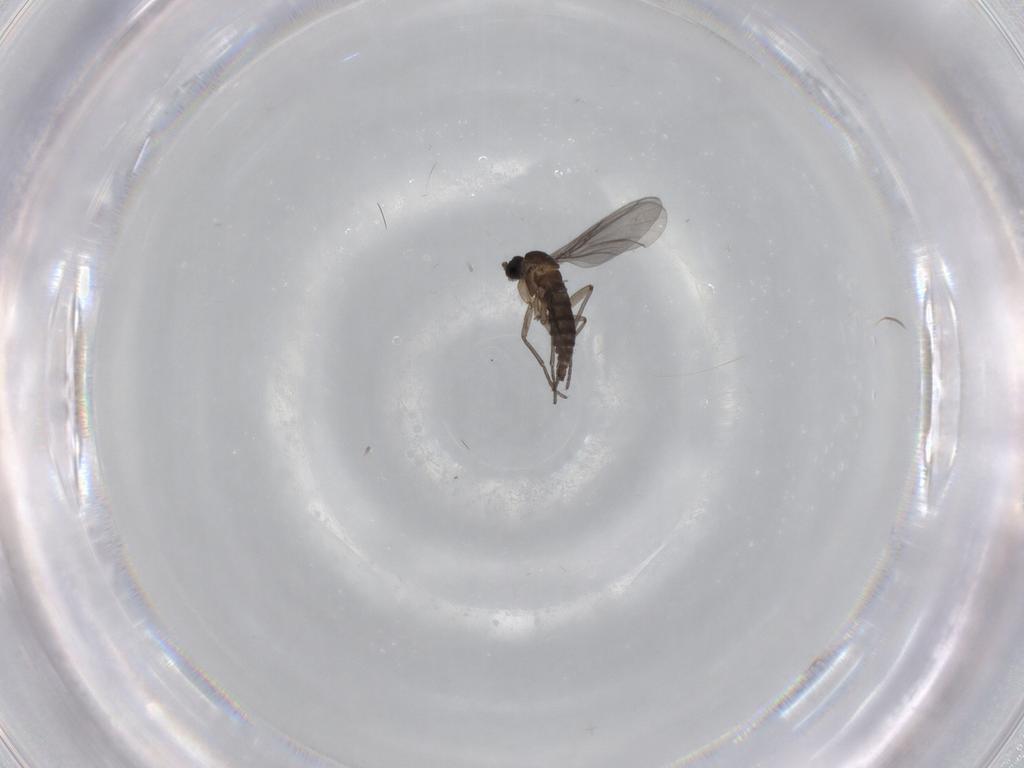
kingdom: Animalia
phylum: Arthropoda
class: Insecta
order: Diptera
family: Sciaridae
